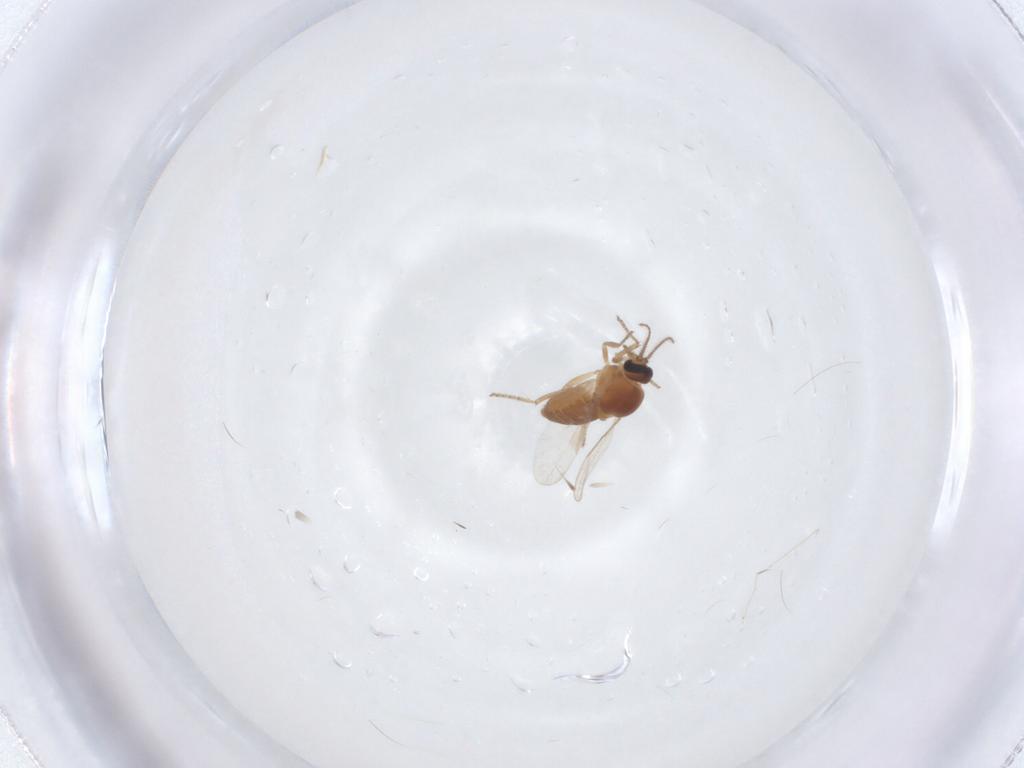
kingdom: Animalia
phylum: Arthropoda
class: Insecta
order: Diptera
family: Ceratopogonidae
